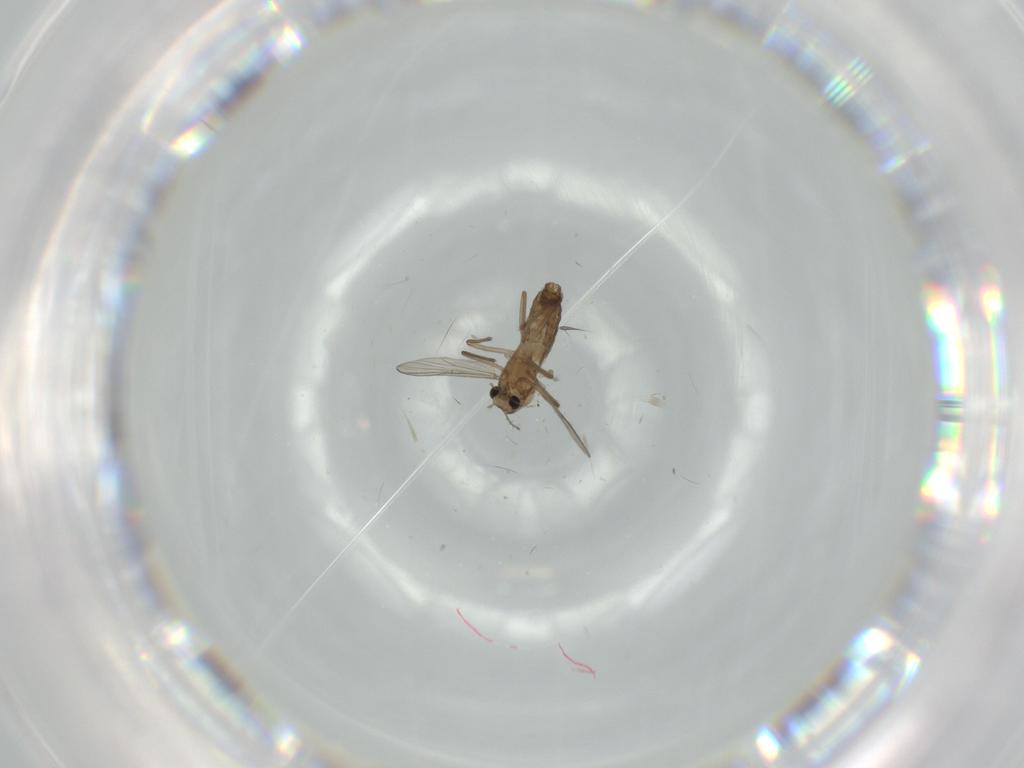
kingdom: Animalia
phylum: Arthropoda
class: Insecta
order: Diptera
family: Chironomidae
